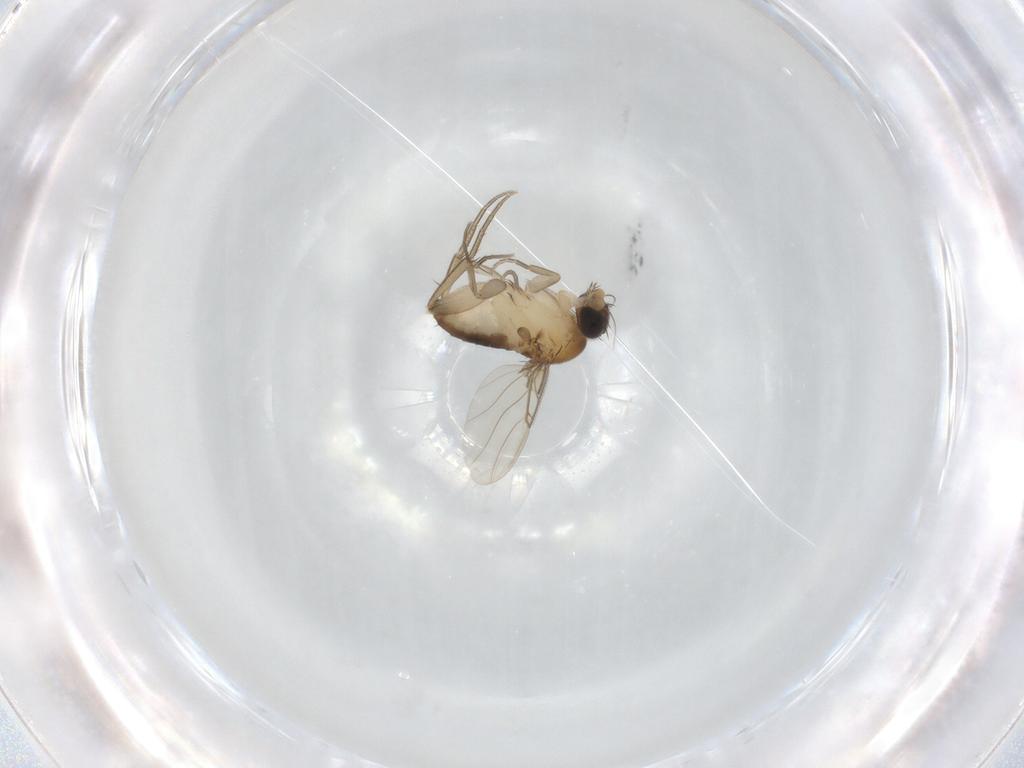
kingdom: Animalia
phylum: Arthropoda
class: Insecta
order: Diptera
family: Phoridae
